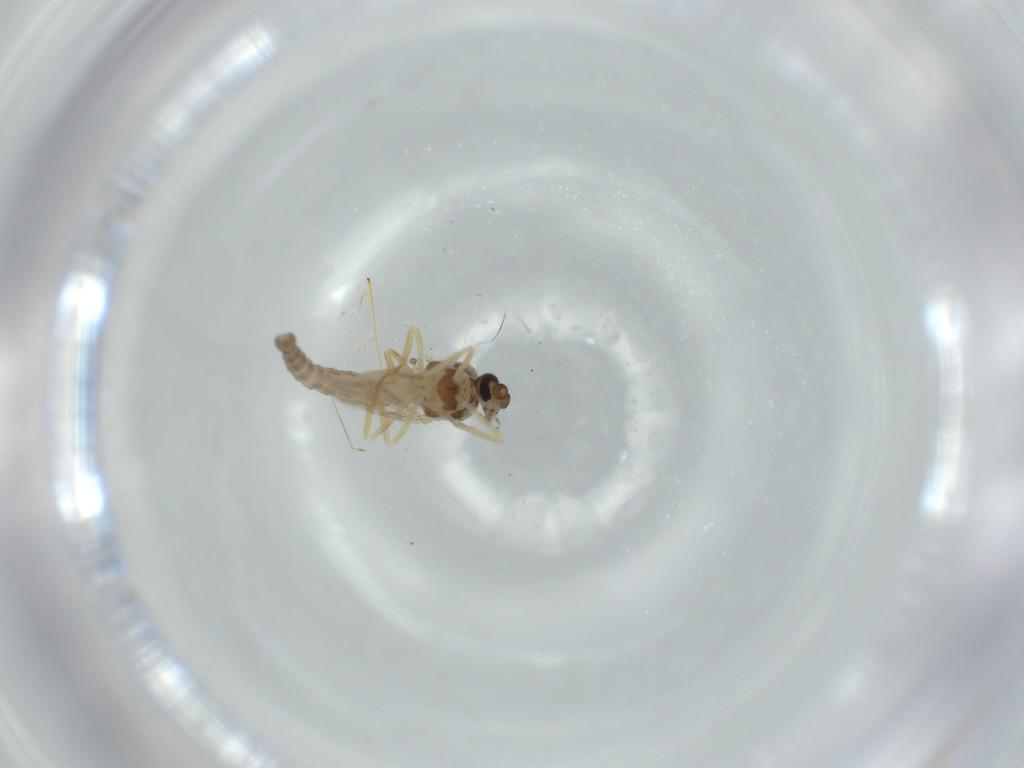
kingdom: Animalia
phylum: Arthropoda
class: Insecta
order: Diptera
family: Ceratopogonidae
